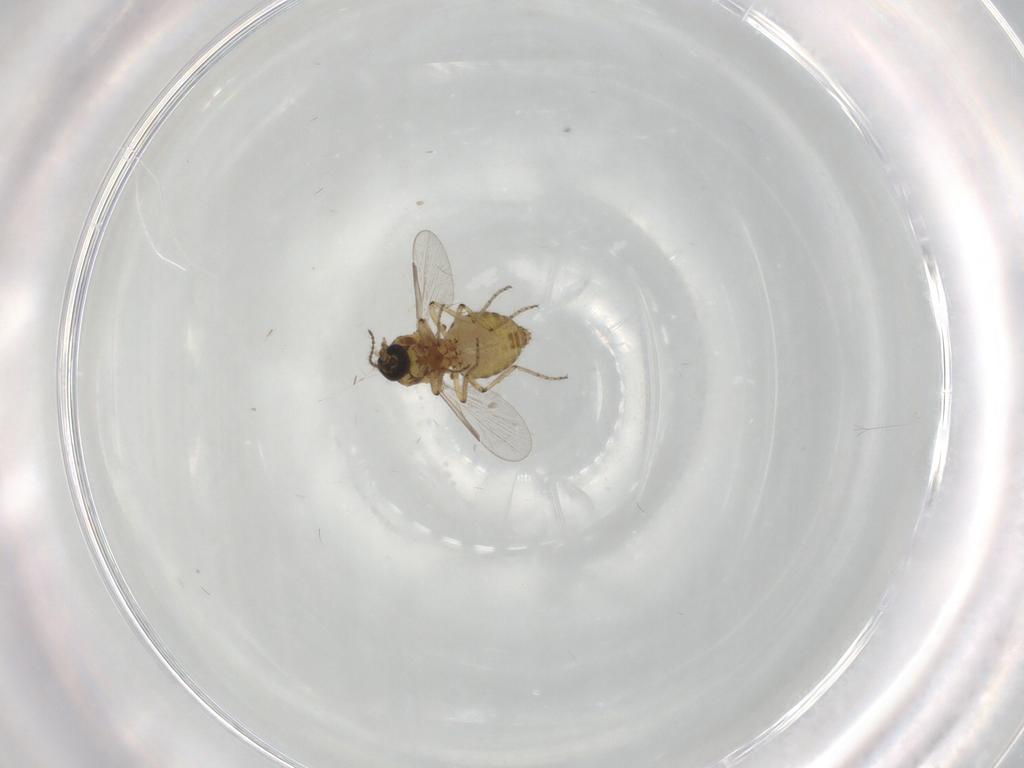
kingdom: Animalia
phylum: Arthropoda
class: Insecta
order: Diptera
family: Ceratopogonidae
